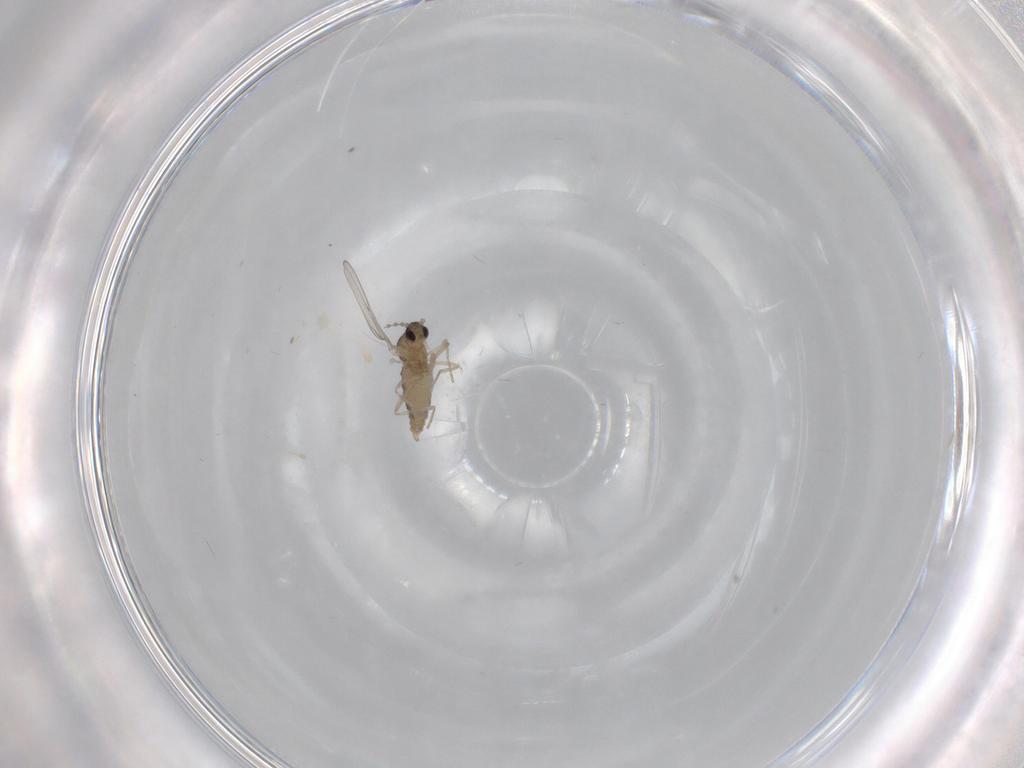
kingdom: Animalia
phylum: Arthropoda
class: Insecta
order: Diptera
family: Cecidomyiidae
